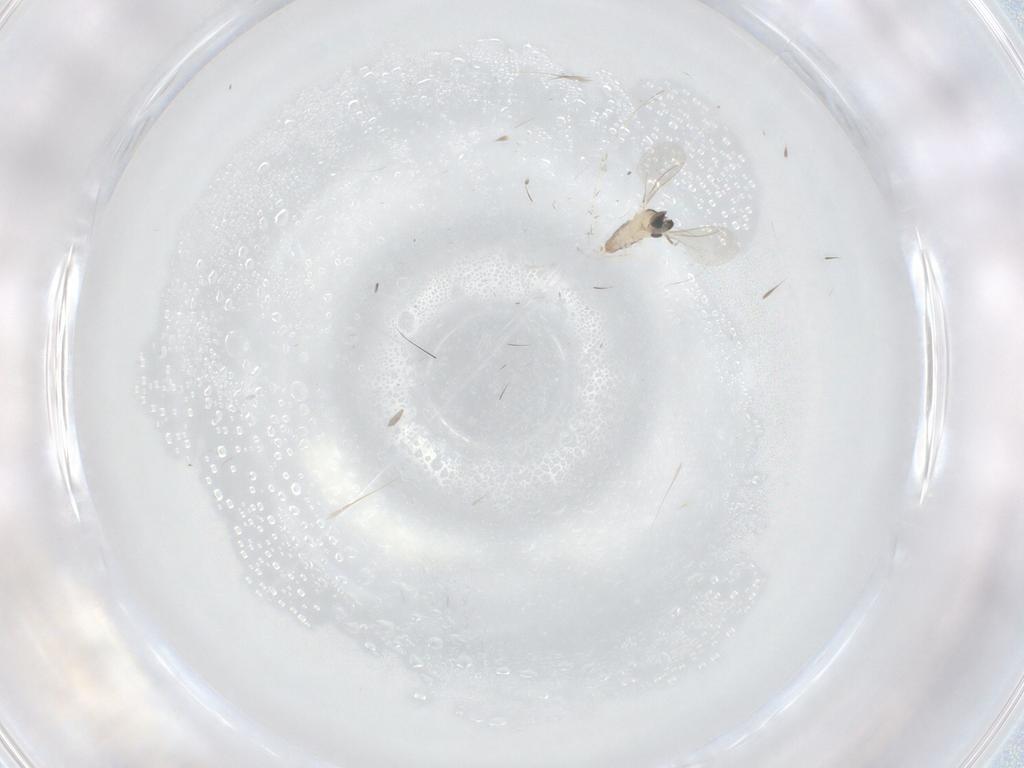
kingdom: Animalia
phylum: Arthropoda
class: Insecta
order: Diptera
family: Cecidomyiidae
